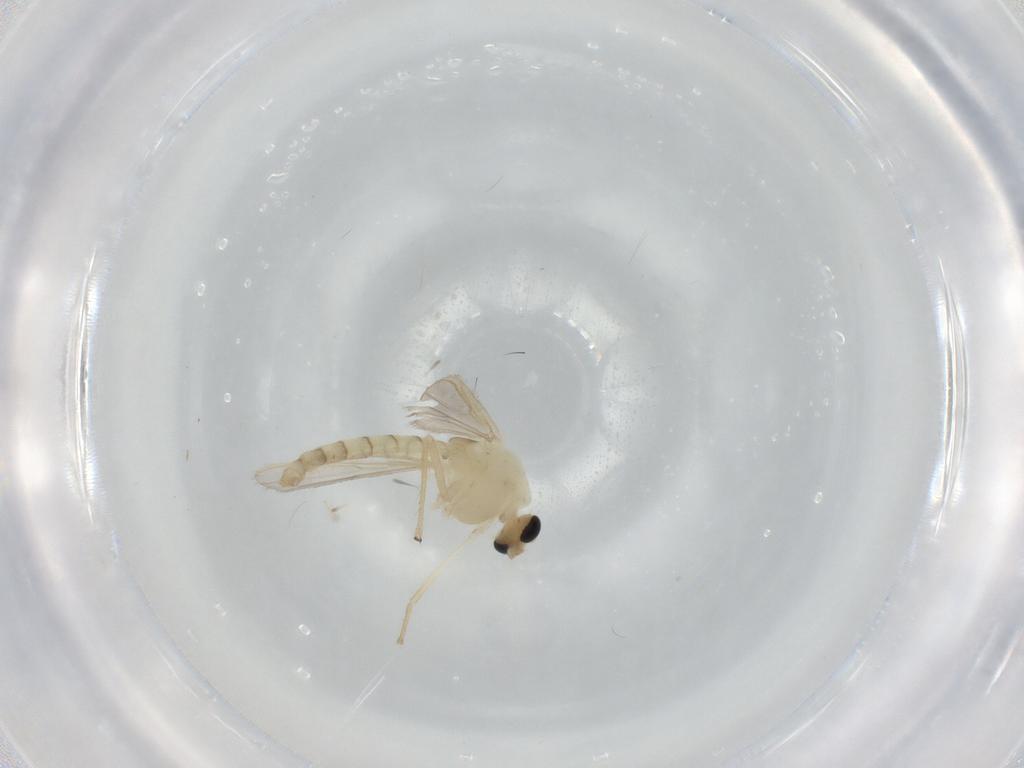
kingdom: Animalia
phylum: Arthropoda
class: Insecta
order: Diptera
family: Chironomidae
